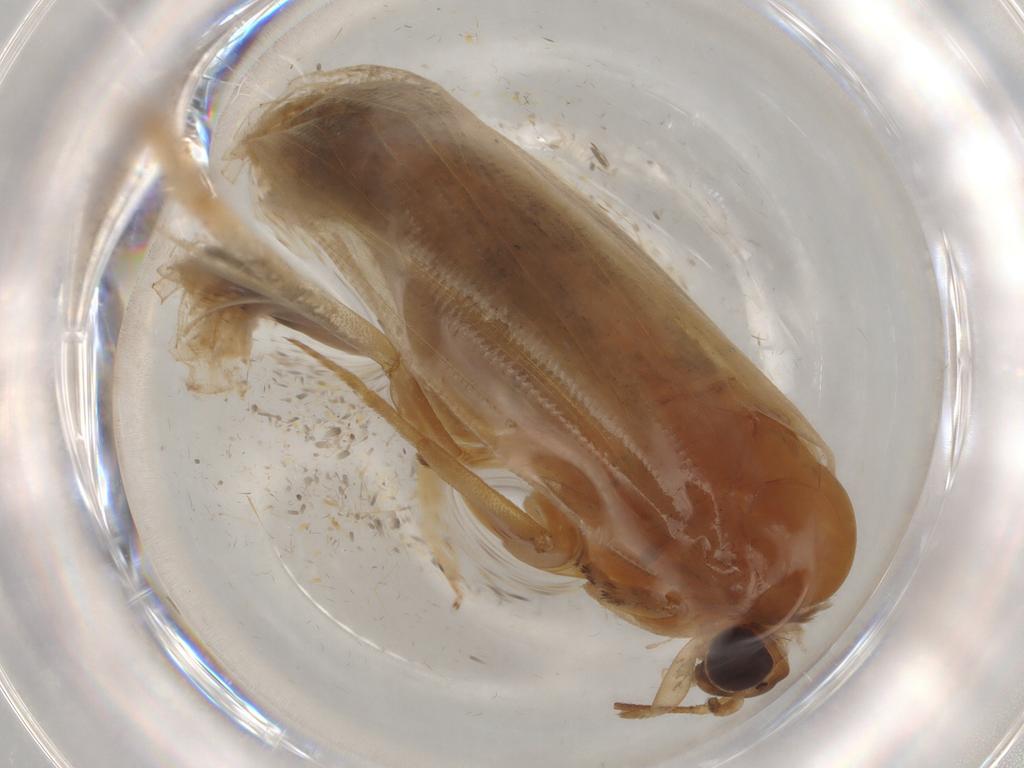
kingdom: Animalia
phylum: Arthropoda
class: Insecta
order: Lepidoptera
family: Tortricidae
